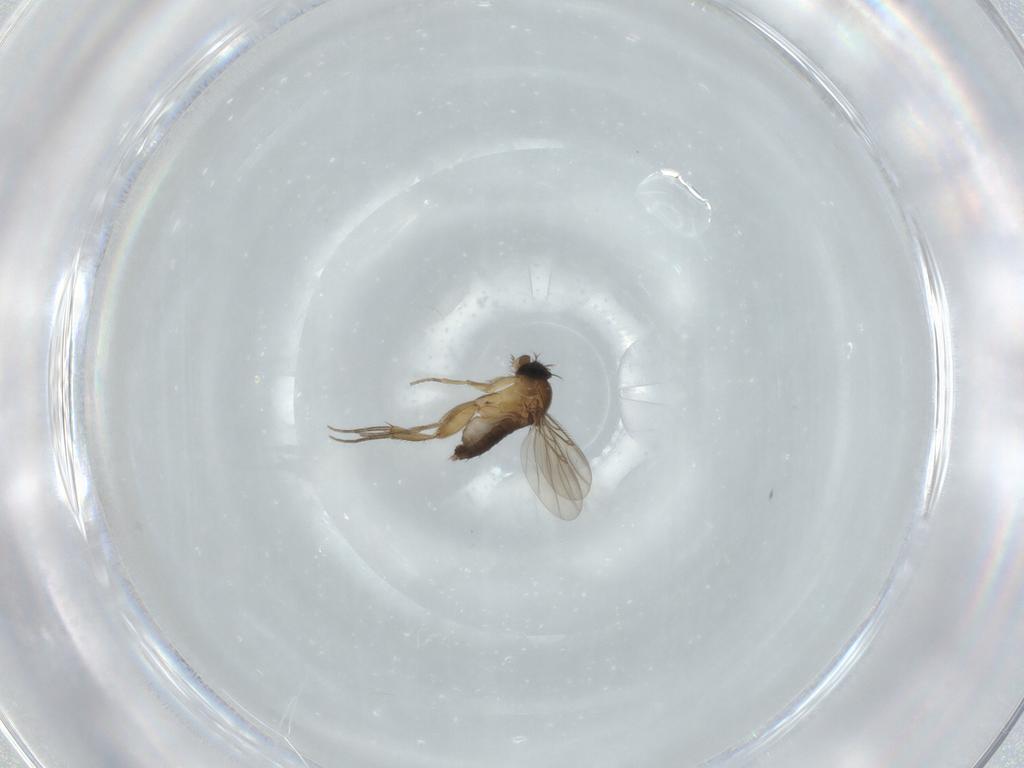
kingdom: Animalia
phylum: Arthropoda
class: Insecta
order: Diptera
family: Phoridae
